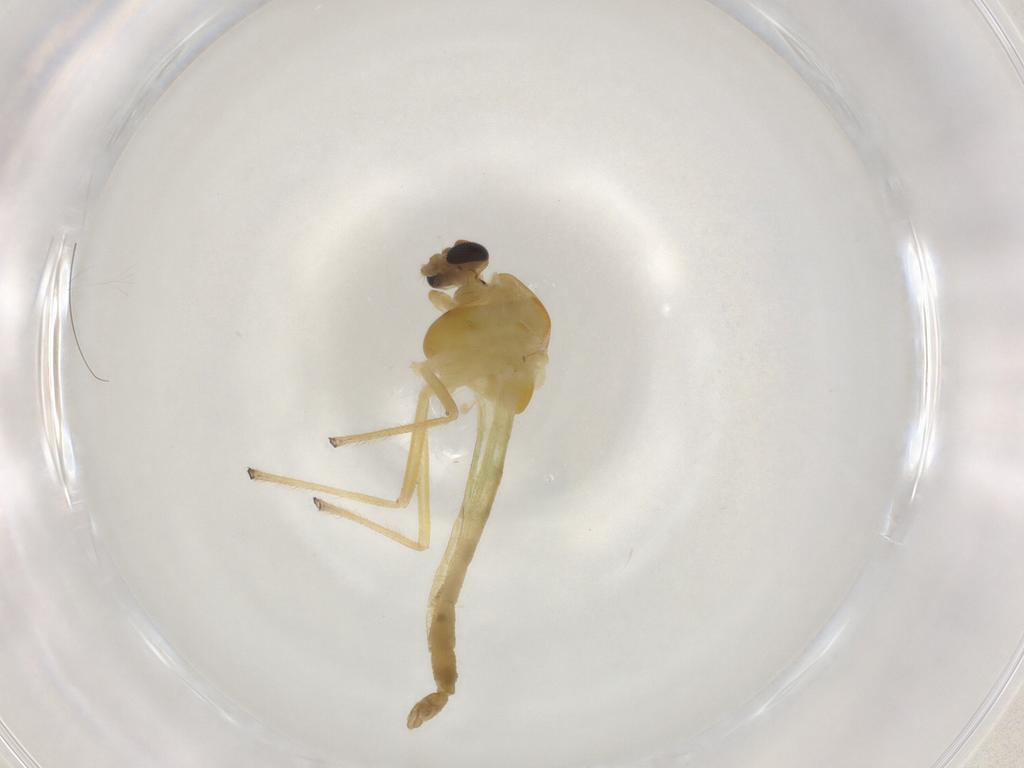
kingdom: Animalia
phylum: Arthropoda
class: Insecta
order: Diptera
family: Chironomidae
